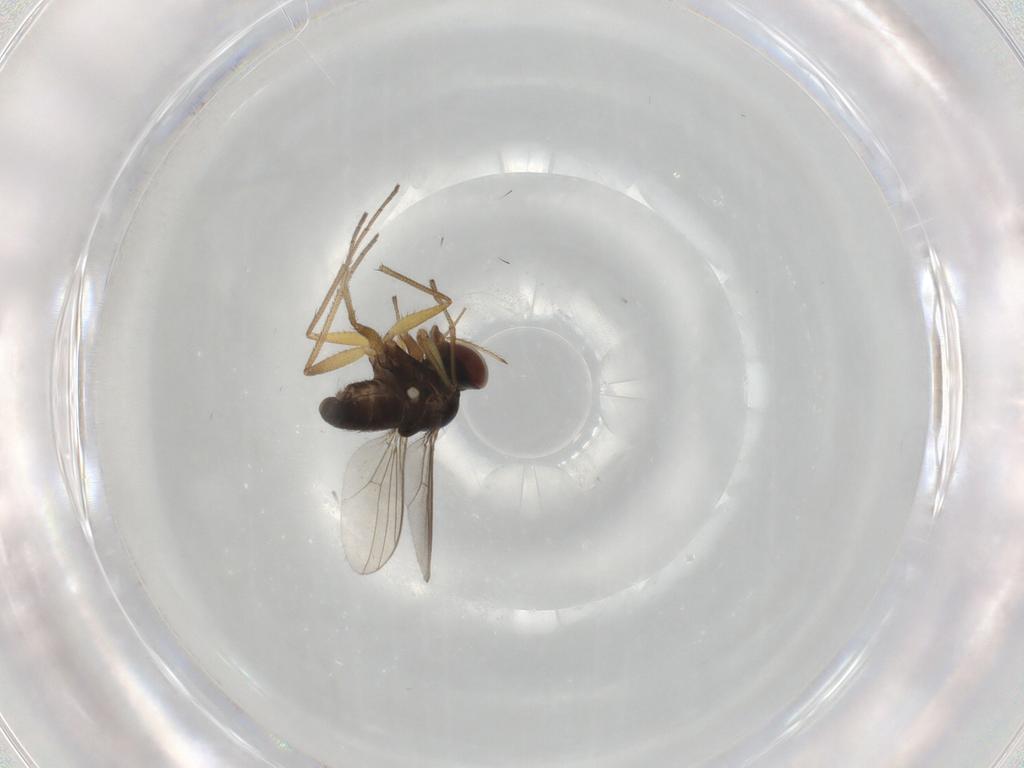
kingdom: Animalia
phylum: Arthropoda
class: Insecta
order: Diptera
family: Dolichopodidae
